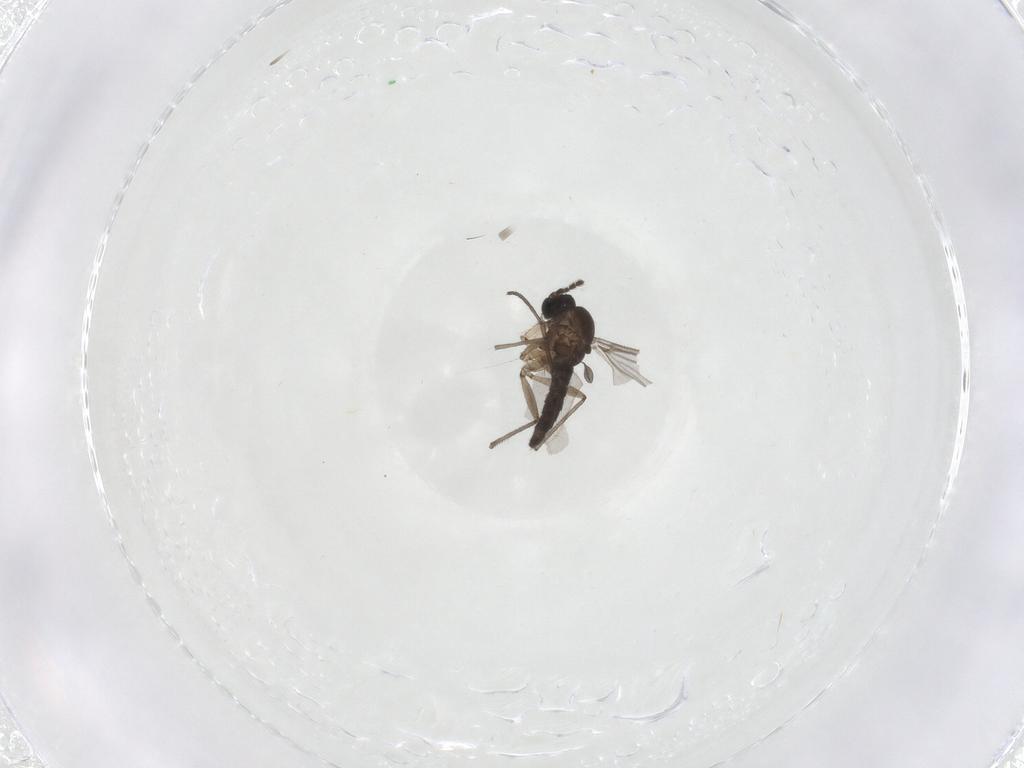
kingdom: Animalia
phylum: Arthropoda
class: Insecta
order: Diptera
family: Sciaridae
